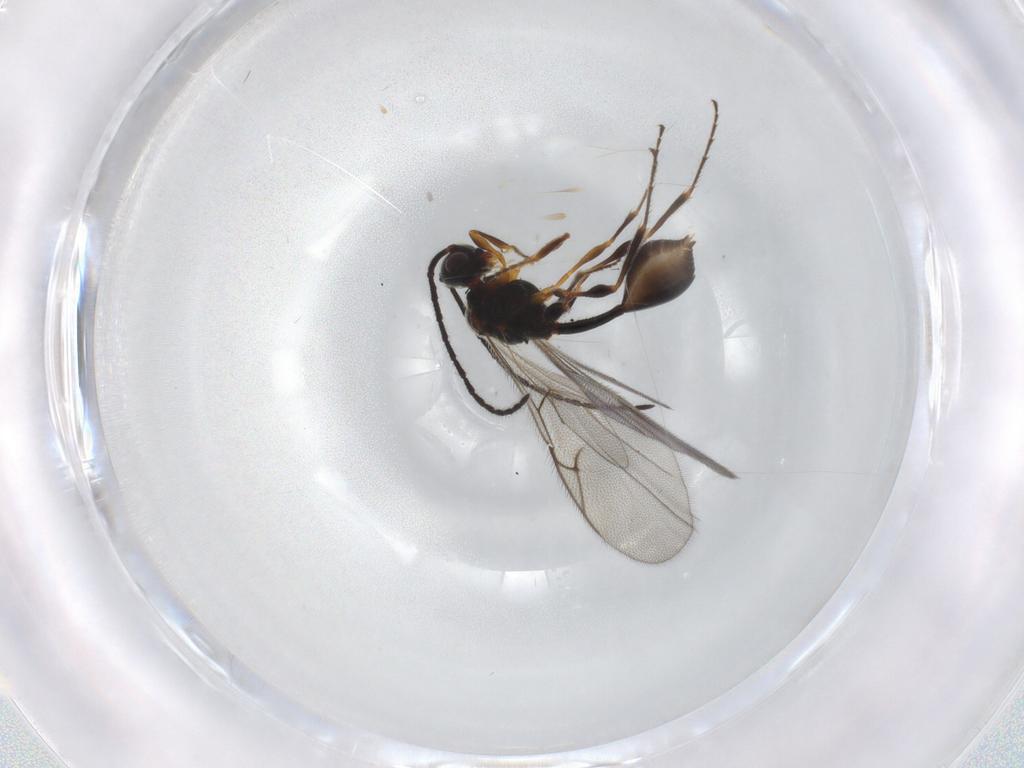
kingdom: Animalia
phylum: Arthropoda
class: Insecta
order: Hymenoptera
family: Diapriidae
